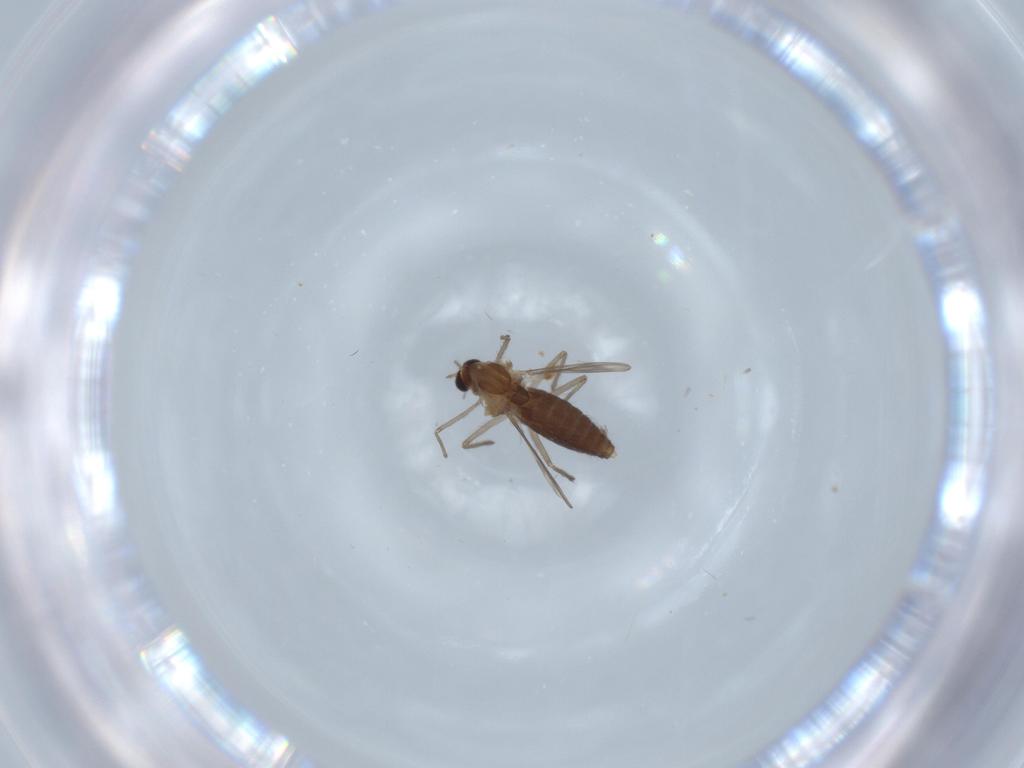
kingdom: Animalia
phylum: Arthropoda
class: Insecta
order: Diptera
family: Chironomidae
